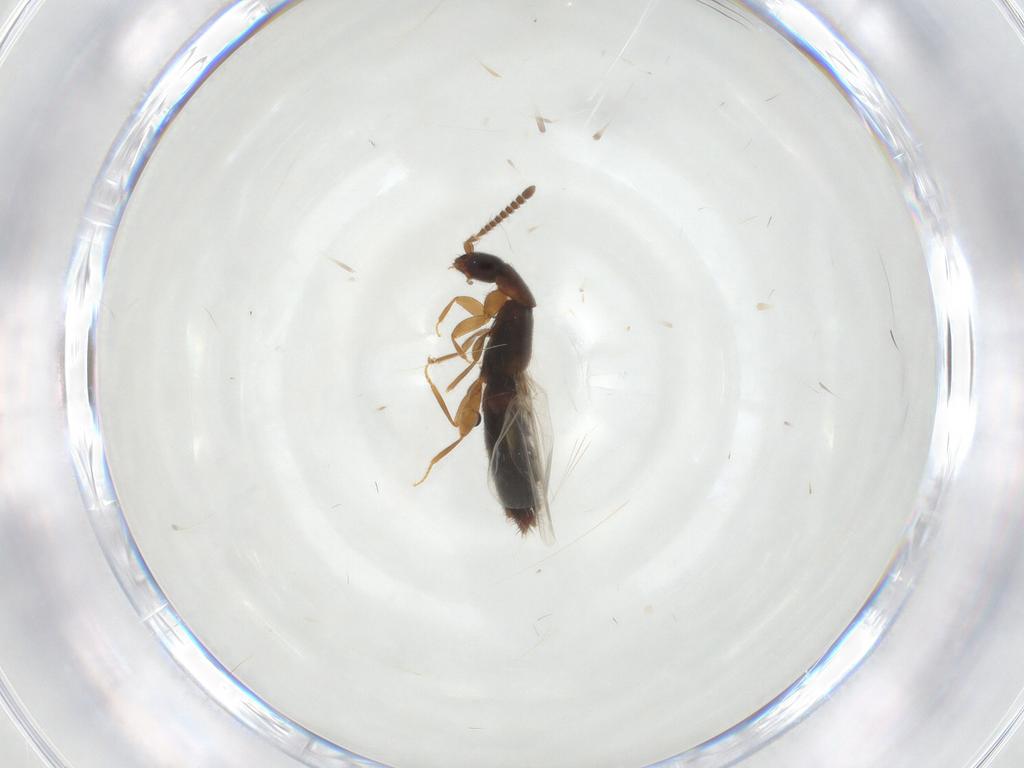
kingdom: Animalia
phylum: Arthropoda
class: Insecta
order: Coleoptera
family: Staphylinidae
